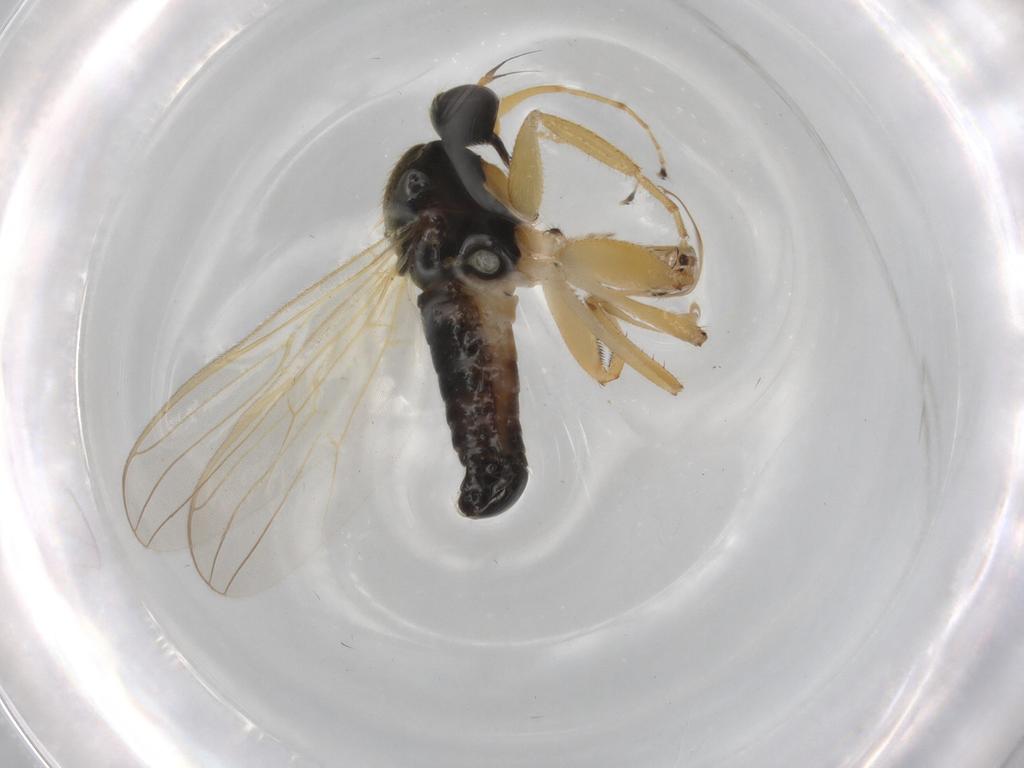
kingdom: Animalia
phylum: Arthropoda
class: Insecta
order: Diptera
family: Hybotidae
